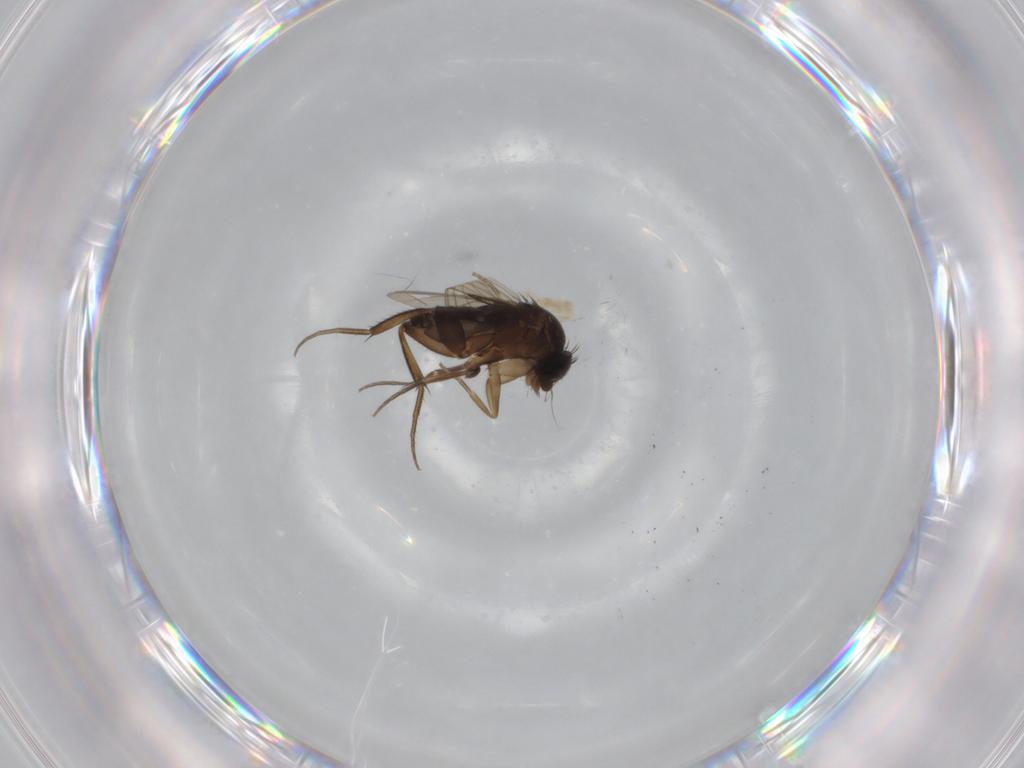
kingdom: Animalia
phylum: Arthropoda
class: Insecta
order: Diptera
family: Phoridae
